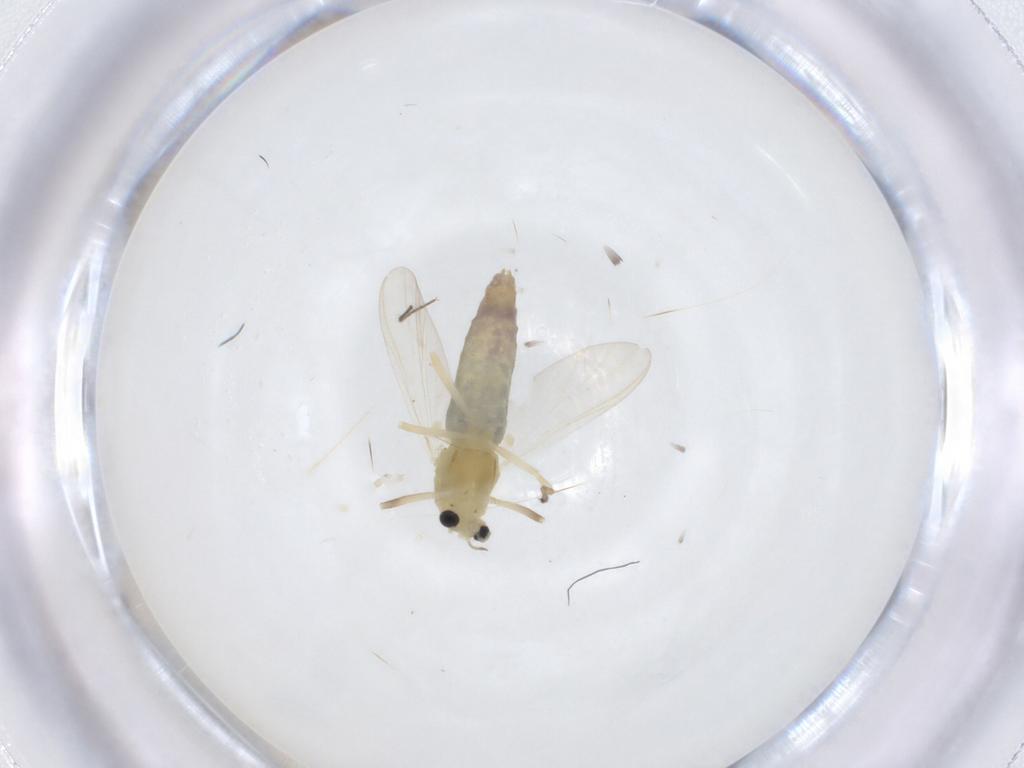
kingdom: Animalia
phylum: Arthropoda
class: Insecta
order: Diptera
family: Chironomidae
